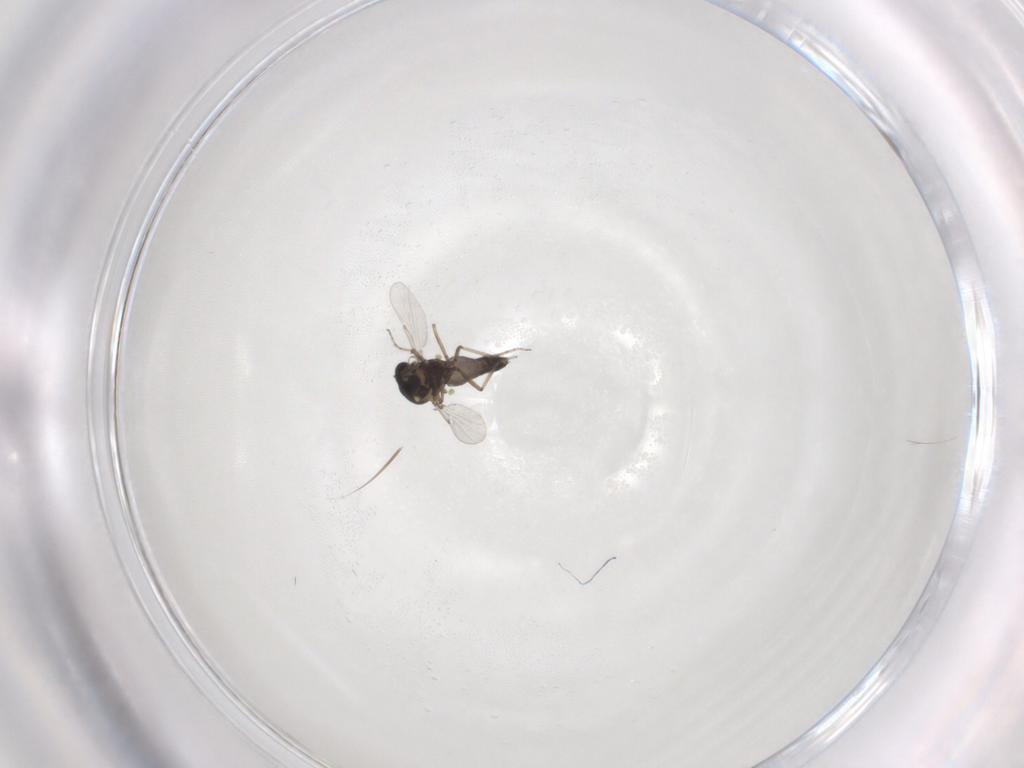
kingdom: Animalia
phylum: Arthropoda
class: Insecta
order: Diptera
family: Ceratopogonidae
